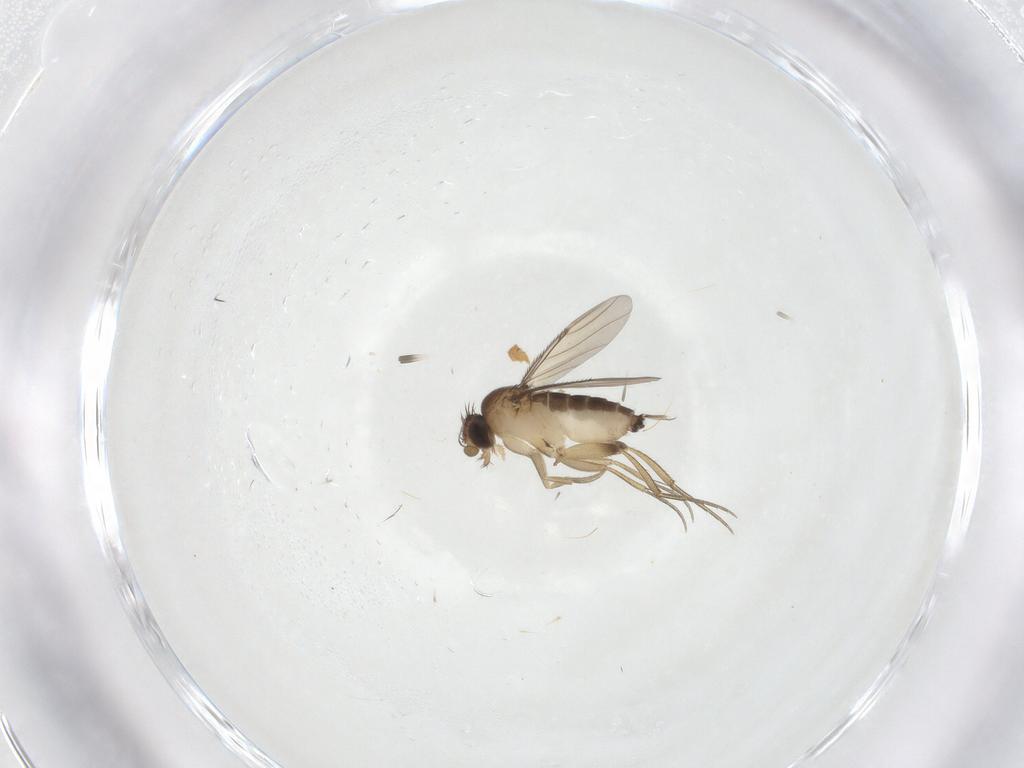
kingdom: Animalia
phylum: Arthropoda
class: Insecta
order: Diptera
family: Phoridae
